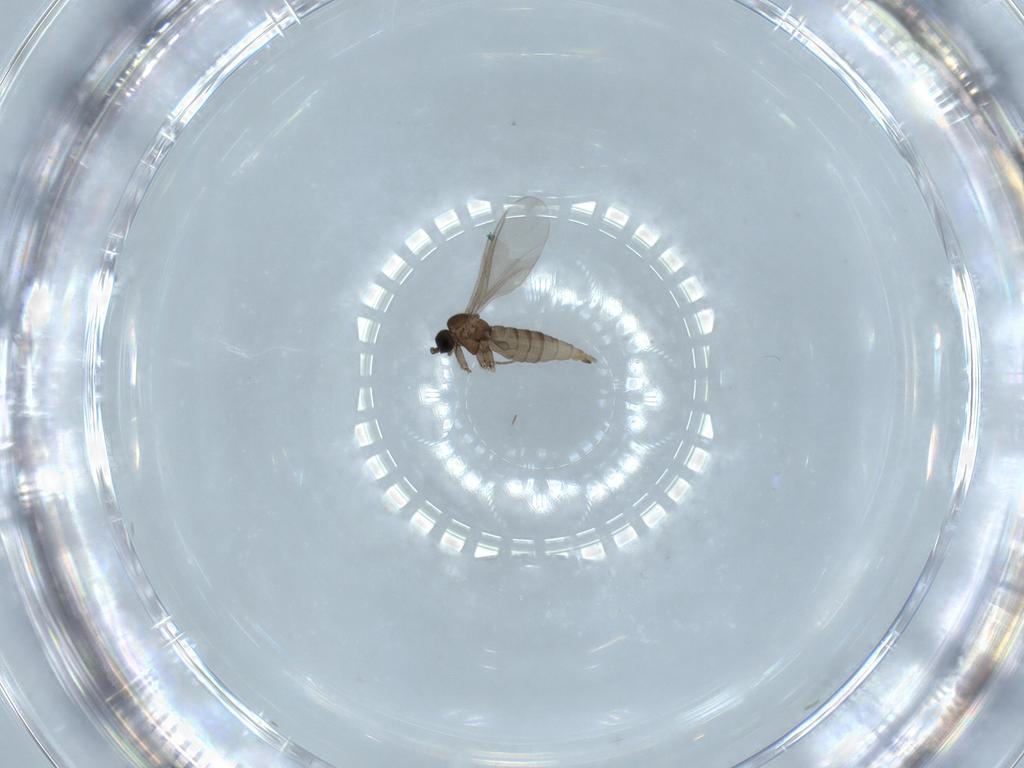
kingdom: Animalia
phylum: Arthropoda
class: Insecta
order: Diptera
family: Sciaridae
